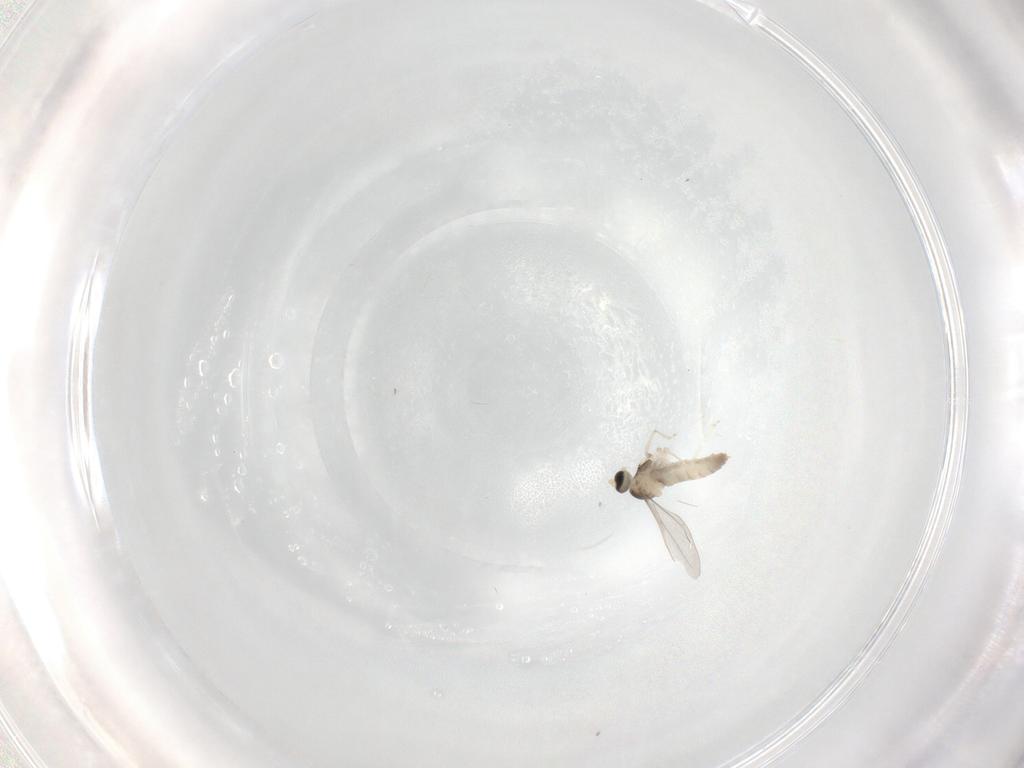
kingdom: Animalia
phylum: Arthropoda
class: Insecta
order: Diptera
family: Cecidomyiidae
